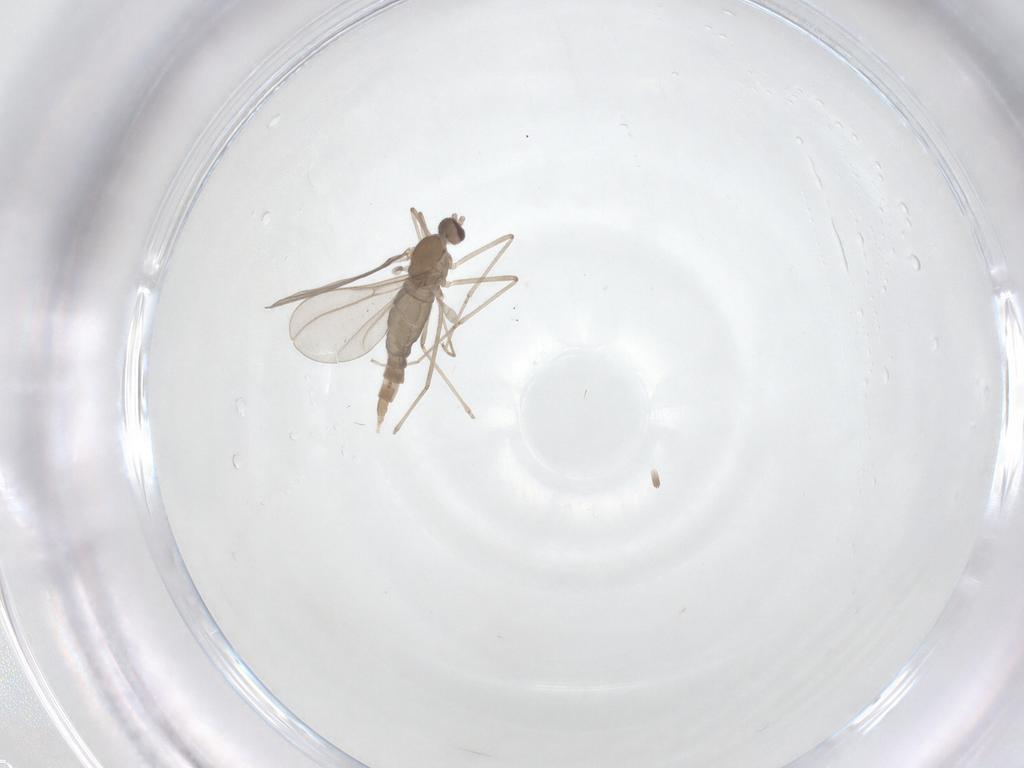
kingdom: Animalia
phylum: Arthropoda
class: Insecta
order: Diptera
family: Cecidomyiidae
